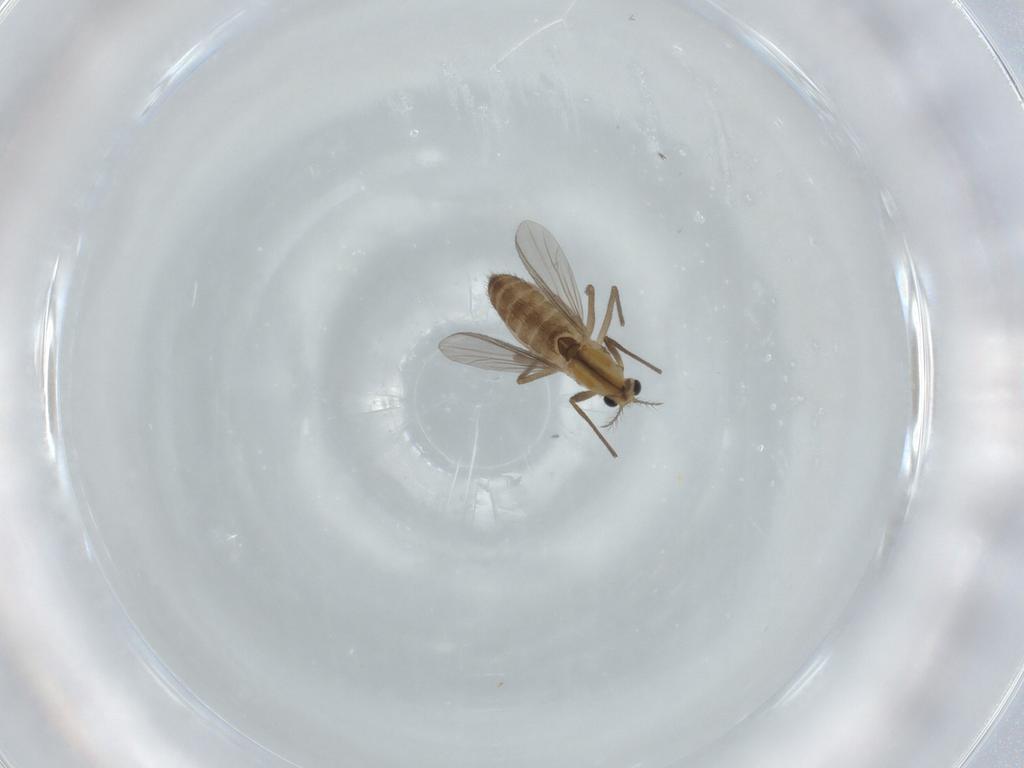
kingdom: Animalia
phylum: Arthropoda
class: Insecta
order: Diptera
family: Chironomidae
